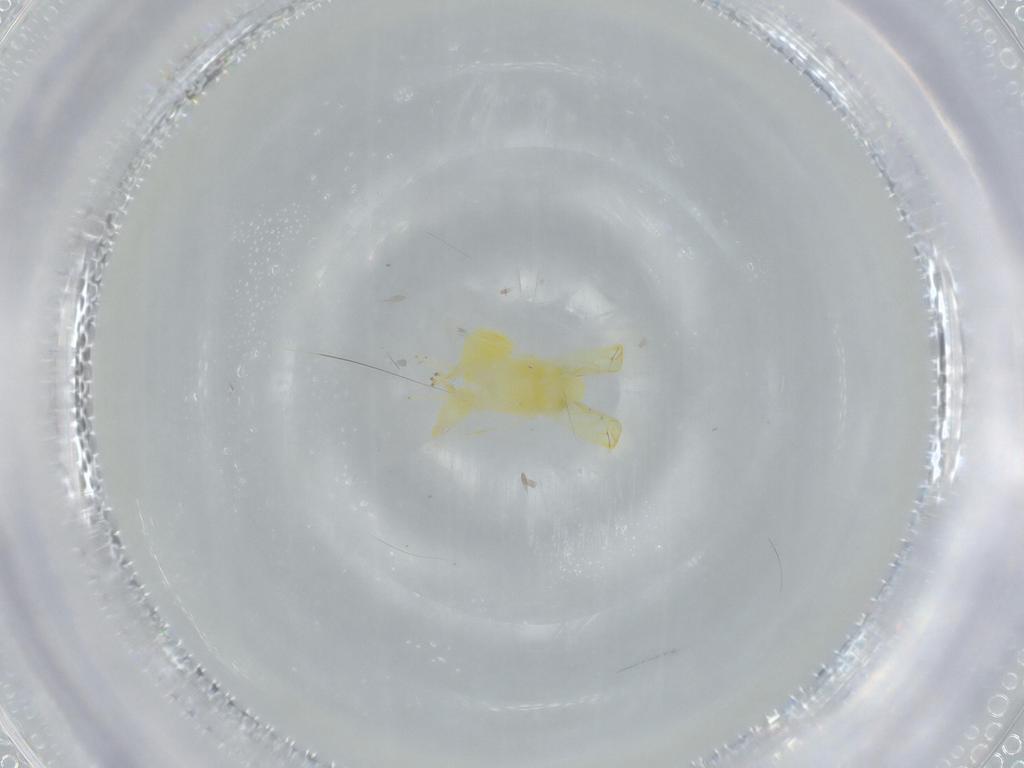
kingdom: Animalia
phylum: Arthropoda
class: Insecta
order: Hemiptera
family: Cicadellidae
